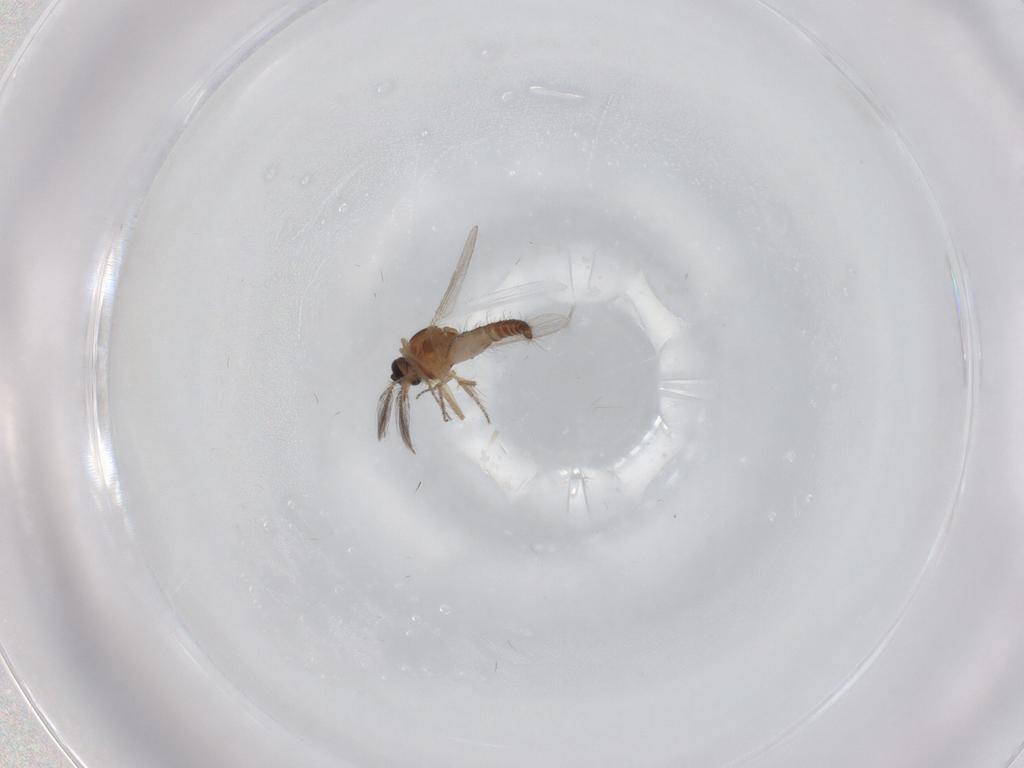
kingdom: Animalia
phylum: Arthropoda
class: Insecta
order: Diptera
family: Ceratopogonidae
